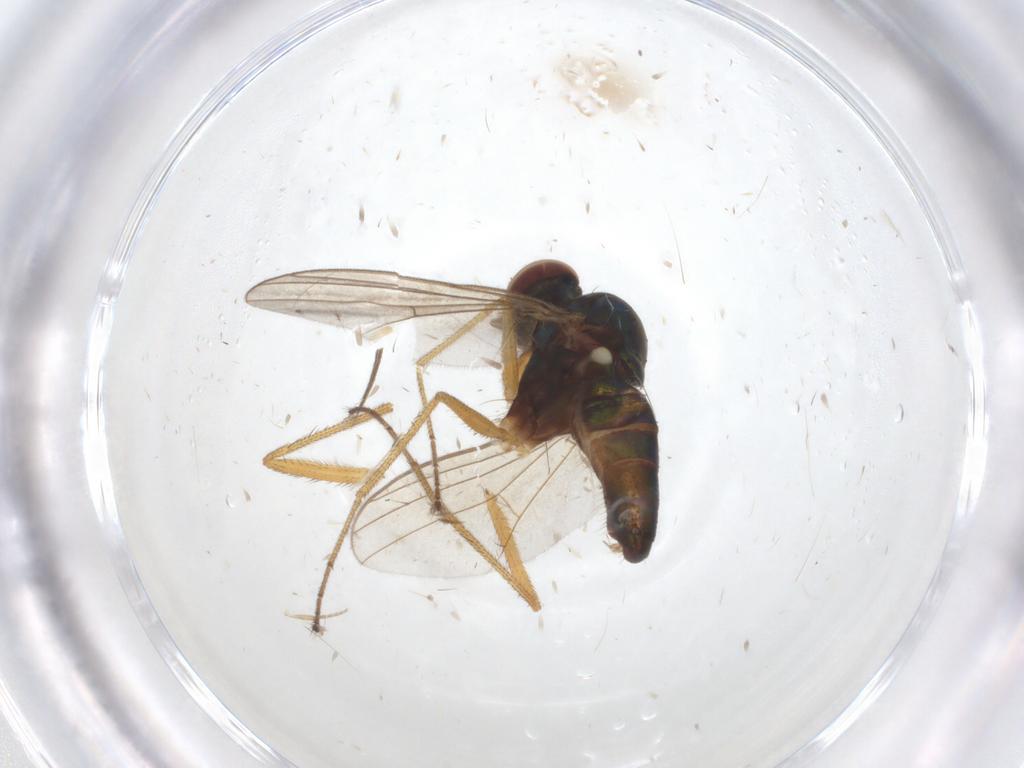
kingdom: Animalia
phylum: Arthropoda
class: Insecta
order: Diptera
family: Dolichopodidae
